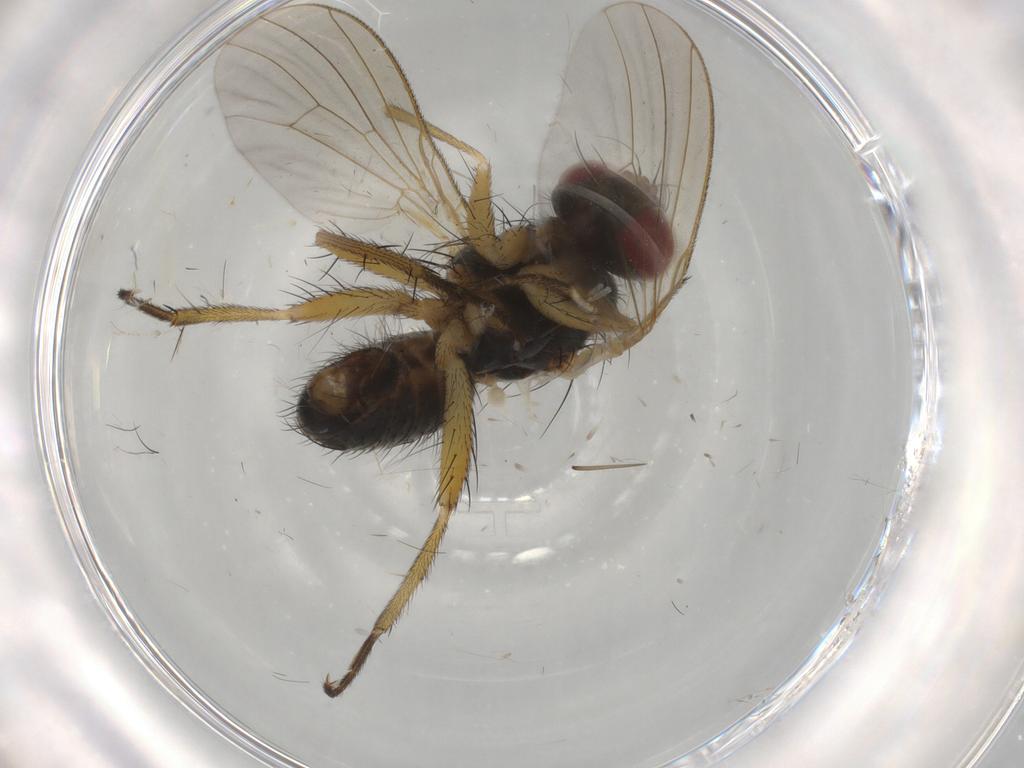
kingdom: Animalia
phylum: Arthropoda
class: Insecta
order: Diptera
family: Muscidae
